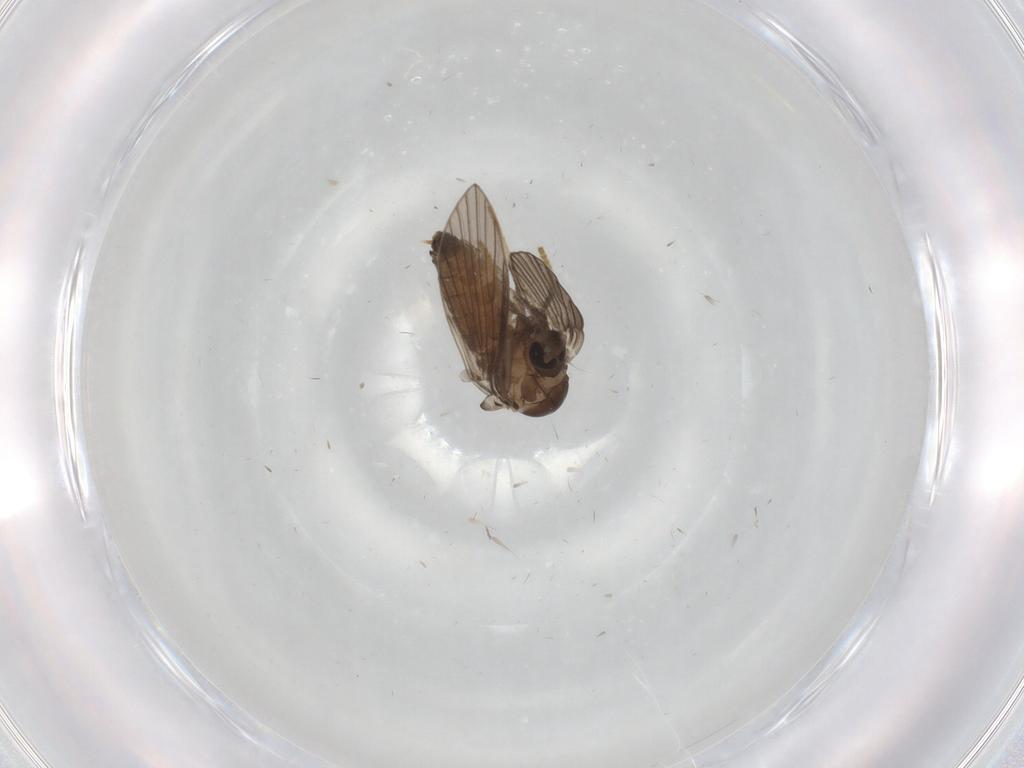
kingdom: Animalia
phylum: Arthropoda
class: Insecta
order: Diptera
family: Psychodidae
